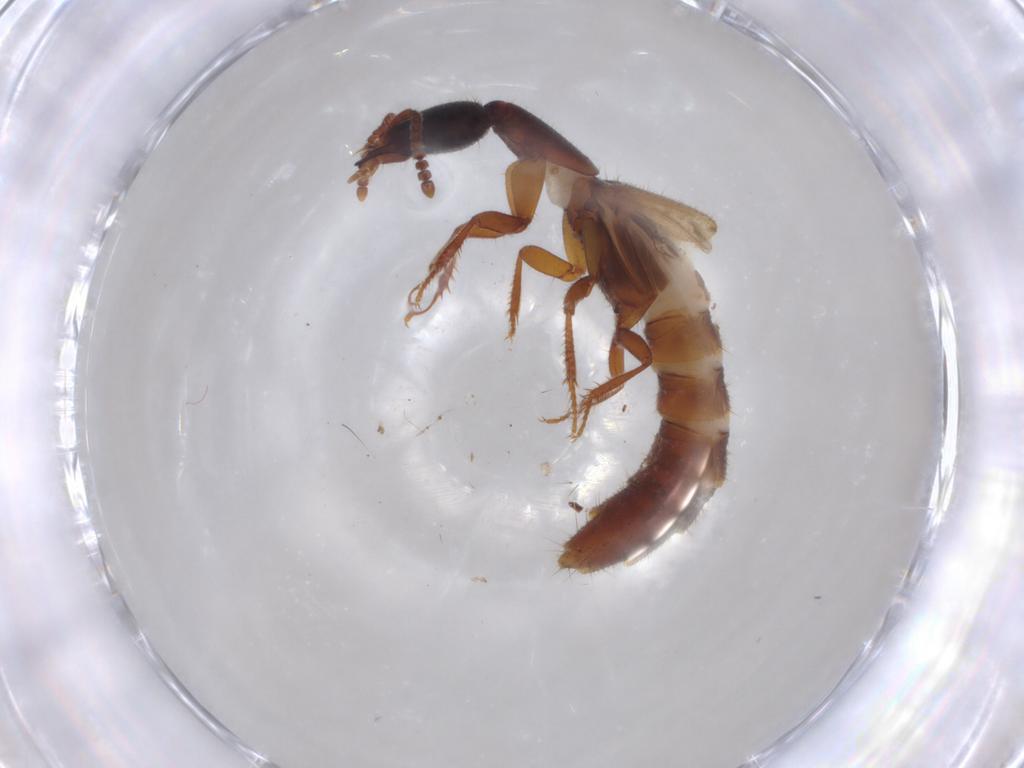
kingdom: Animalia
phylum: Arthropoda
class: Insecta
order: Coleoptera
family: Staphylinidae
